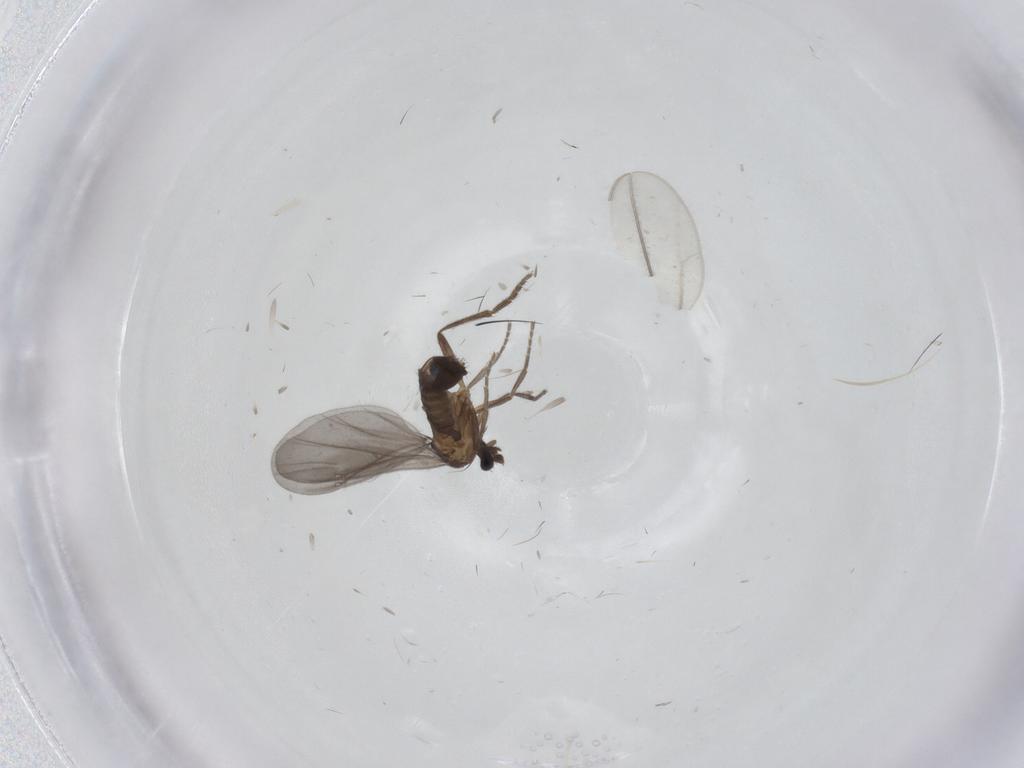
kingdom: Animalia
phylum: Arthropoda
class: Insecta
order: Diptera
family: Phoridae
